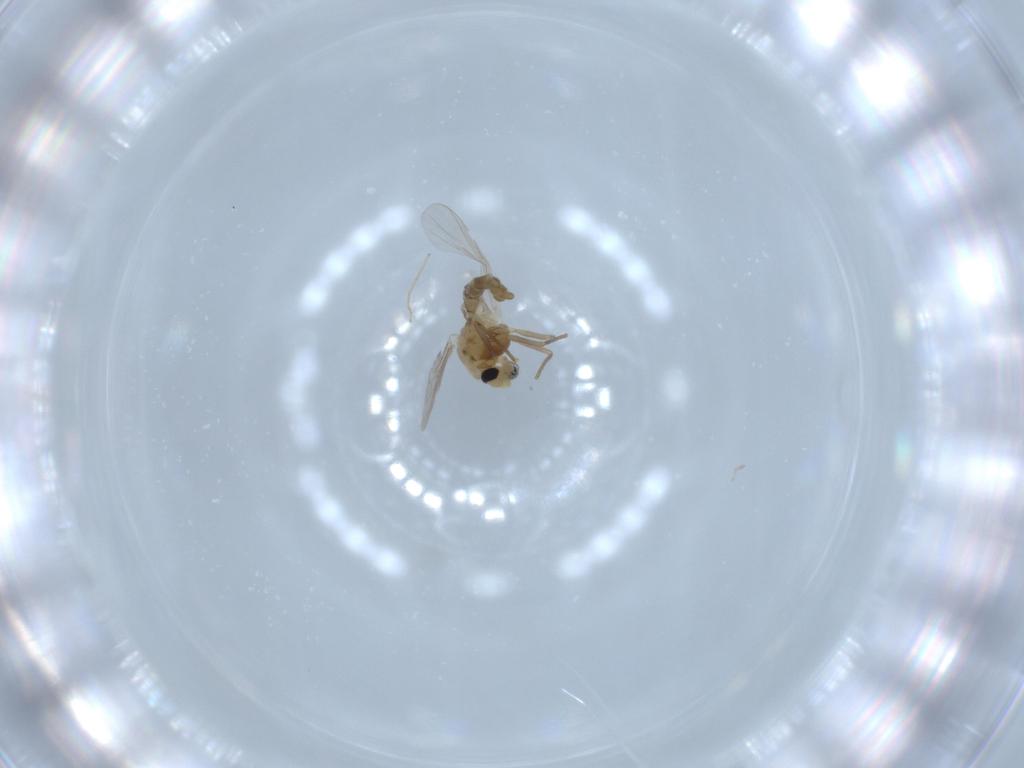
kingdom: Animalia
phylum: Arthropoda
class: Insecta
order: Diptera
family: Chironomidae
